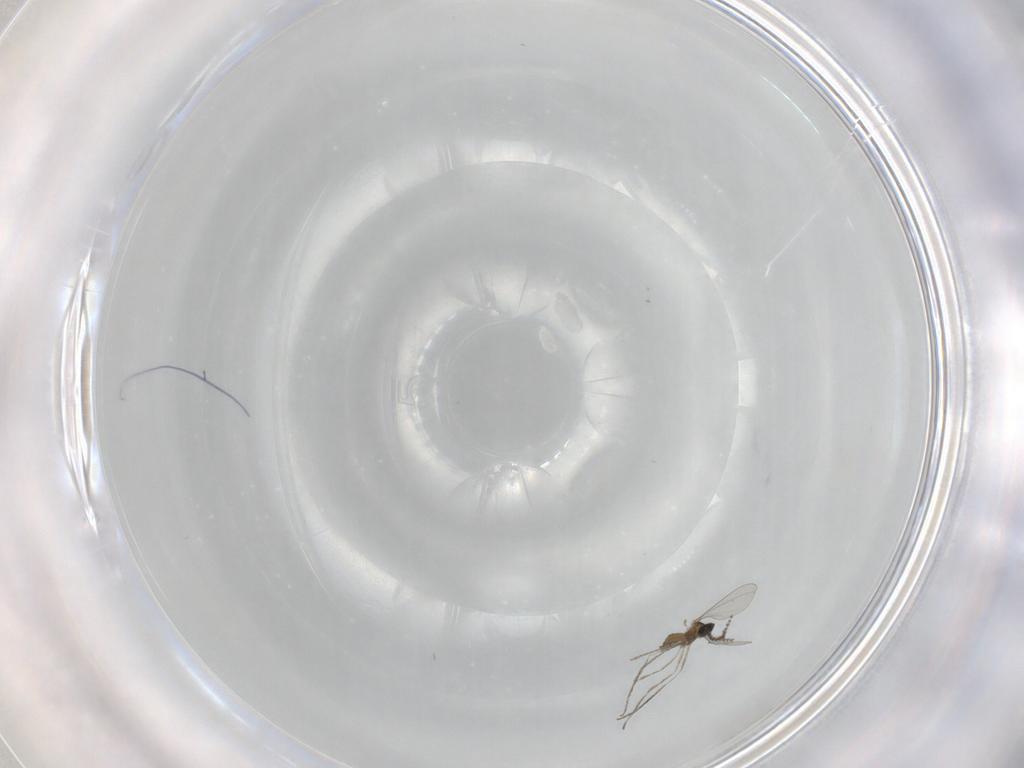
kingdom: Animalia
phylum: Arthropoda
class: Insecta
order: Diptera
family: Cecidomyiidae
